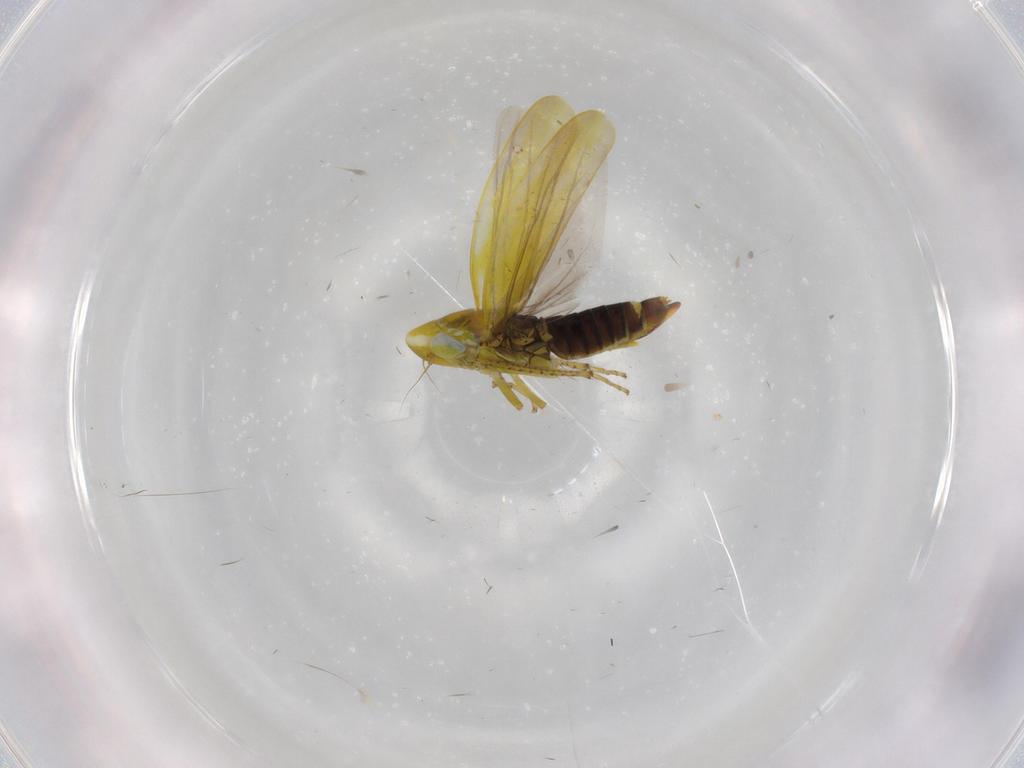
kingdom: Animalia
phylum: Arthropoda
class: Insecta
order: Hemiptera
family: Cicadellidae
